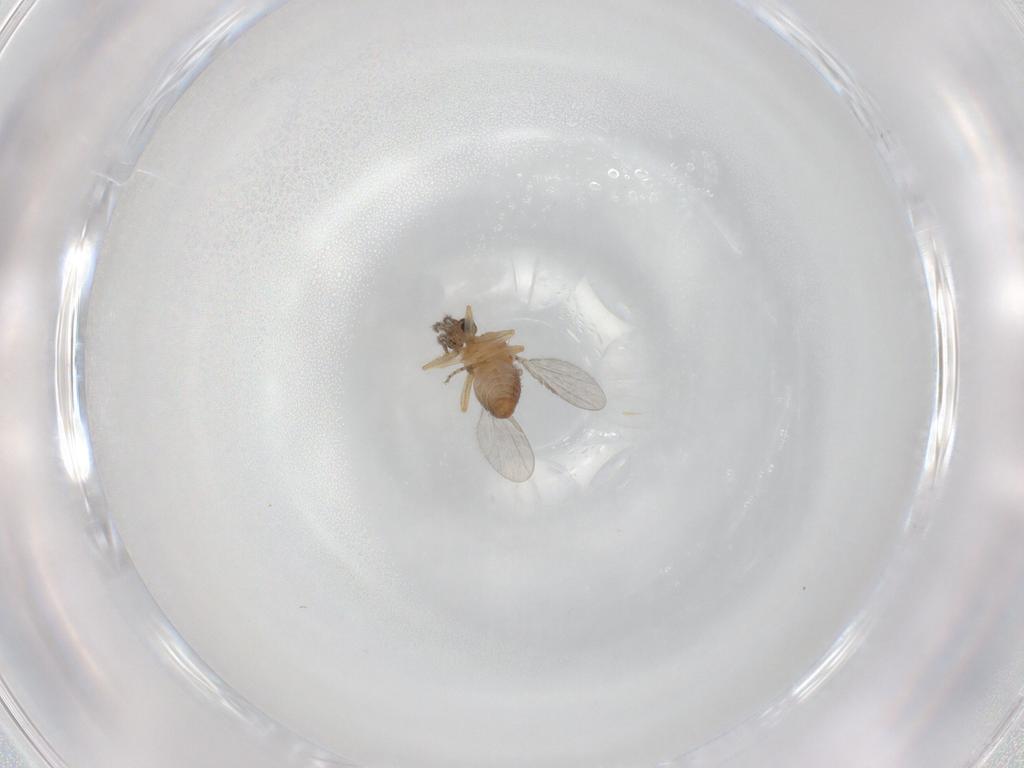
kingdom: Animalia
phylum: Arthropoda
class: Insecta
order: Diptera
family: Ceratopogonidae
